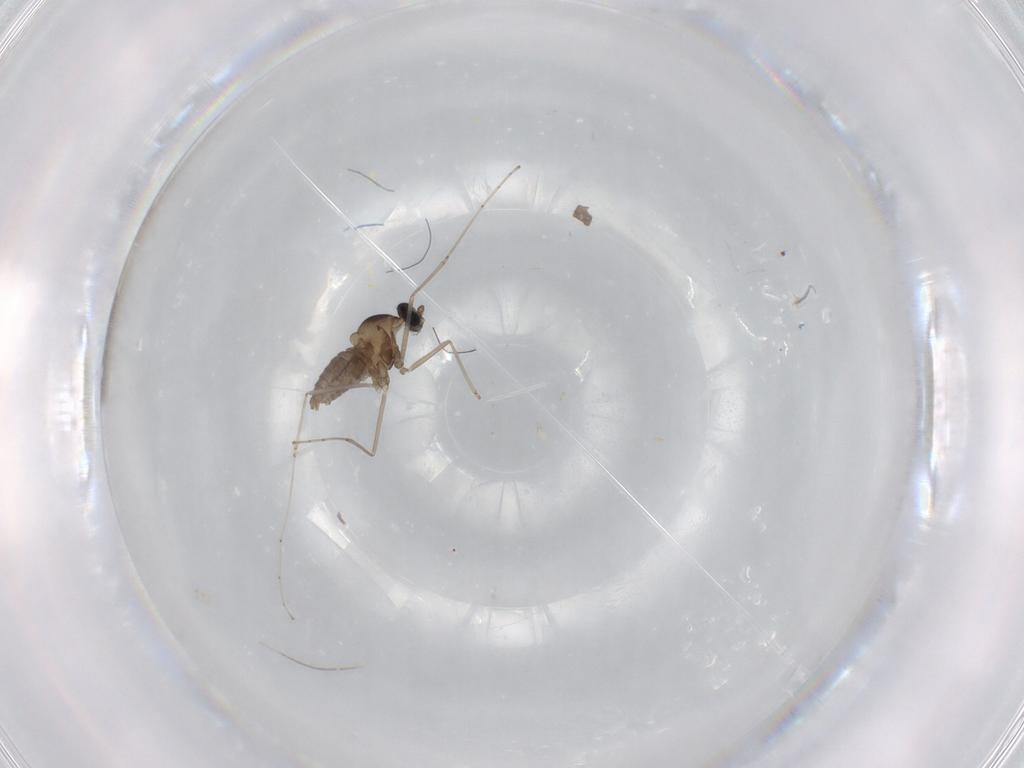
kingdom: Animalia
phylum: Arthropoda
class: Insecta
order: Diptera
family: Cecidomyiidae
